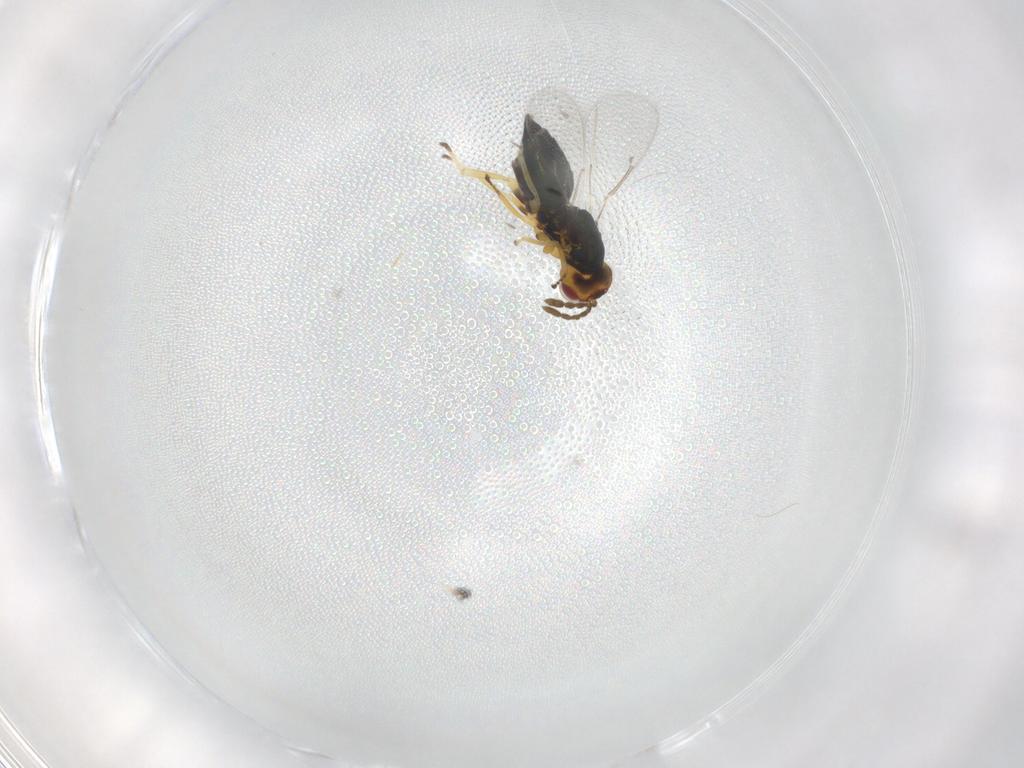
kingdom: Animalia
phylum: Arthropoda
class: Insecta
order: Hymenoptera
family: Eulophidae
